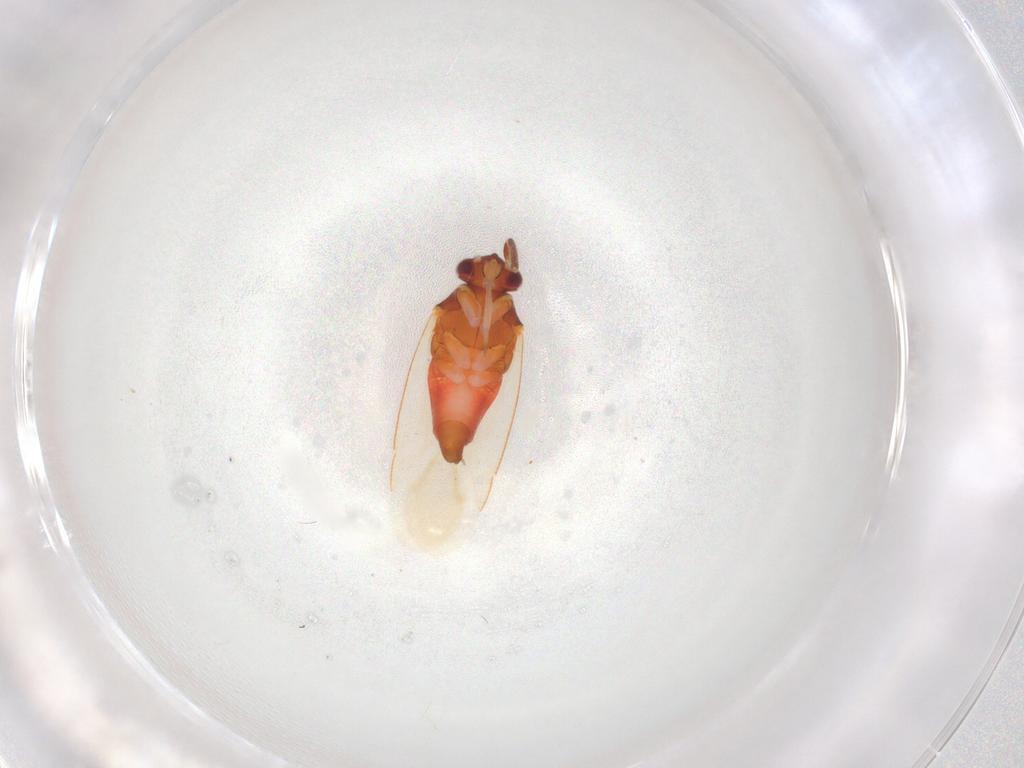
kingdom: Animalia
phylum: Arthropoda
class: Insecta
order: Hemiptera
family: Miridae
